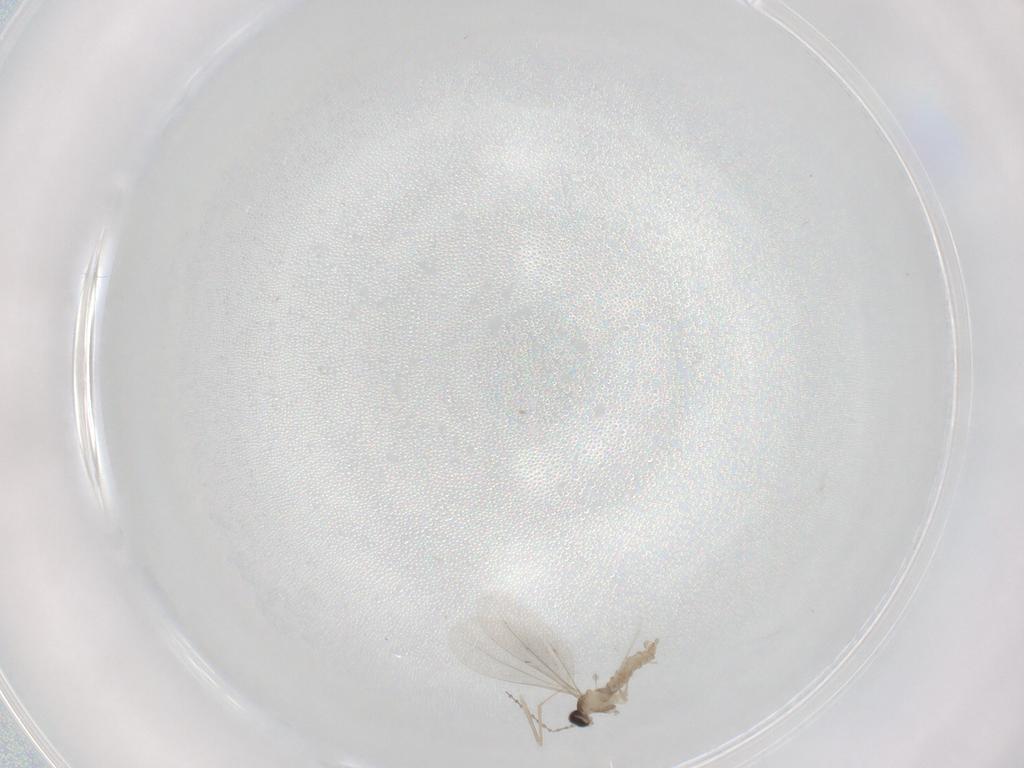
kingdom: Animalia
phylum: Arthropoda
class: Insecta
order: Diptera
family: Cecidomyiidae
